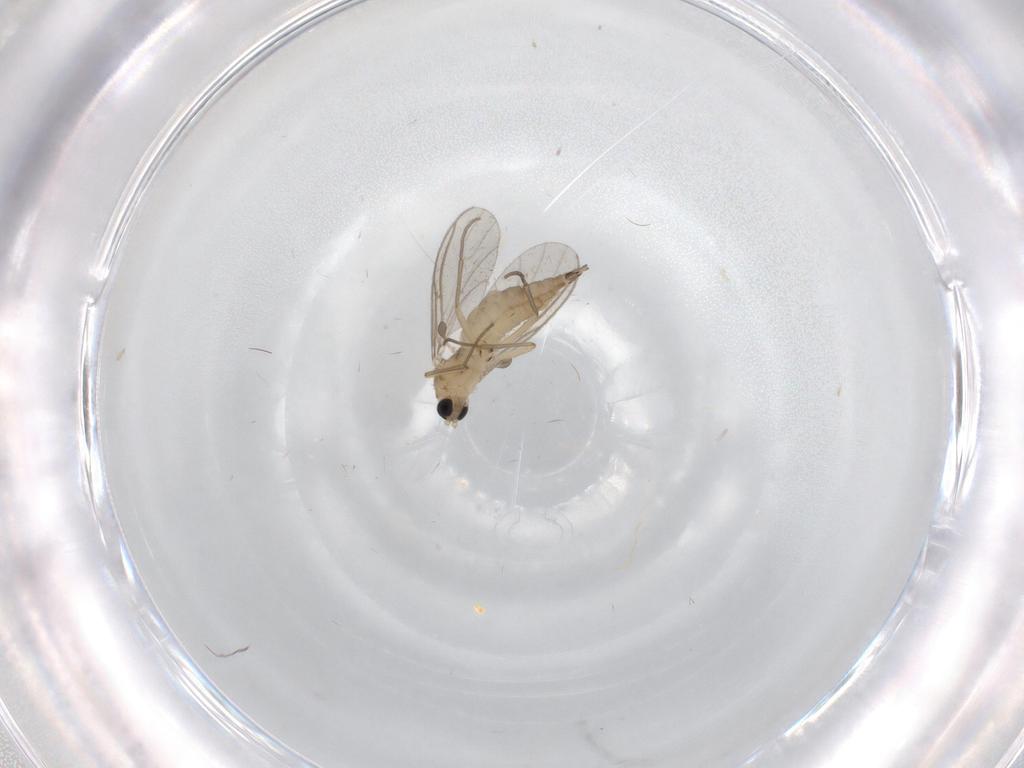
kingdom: Animalia
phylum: Arthropoda
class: Insecta
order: Diptera
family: Sciaridae
